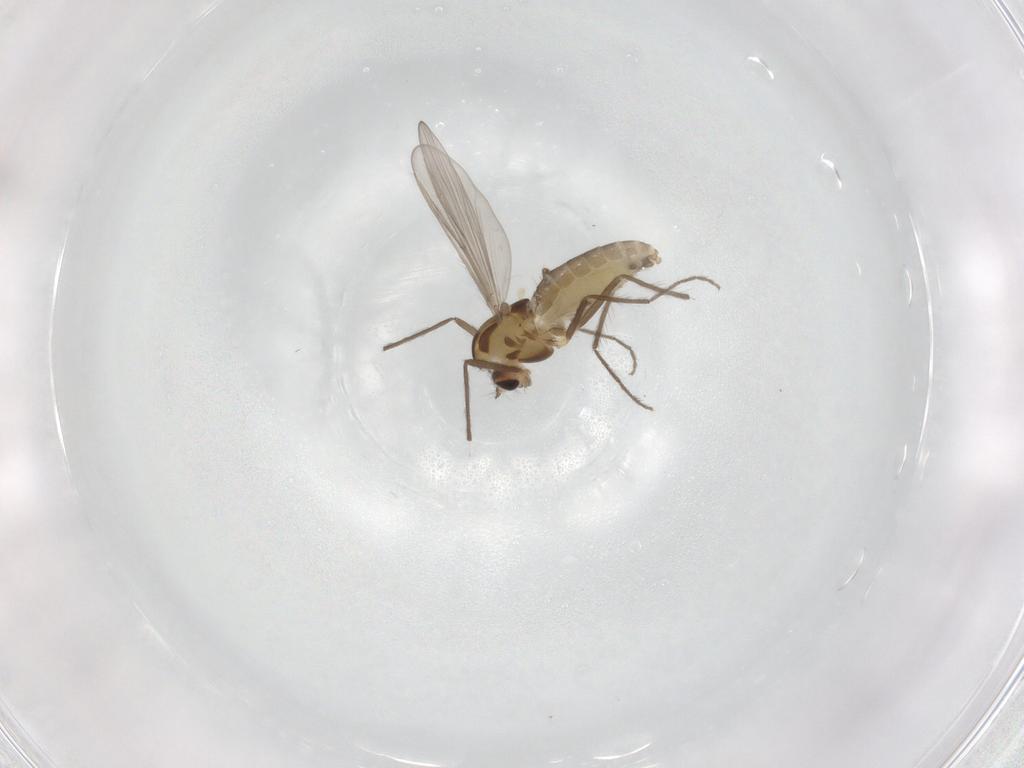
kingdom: Animalia
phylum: Arthropoda
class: Insecta
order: Diptera
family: Chironomidae
